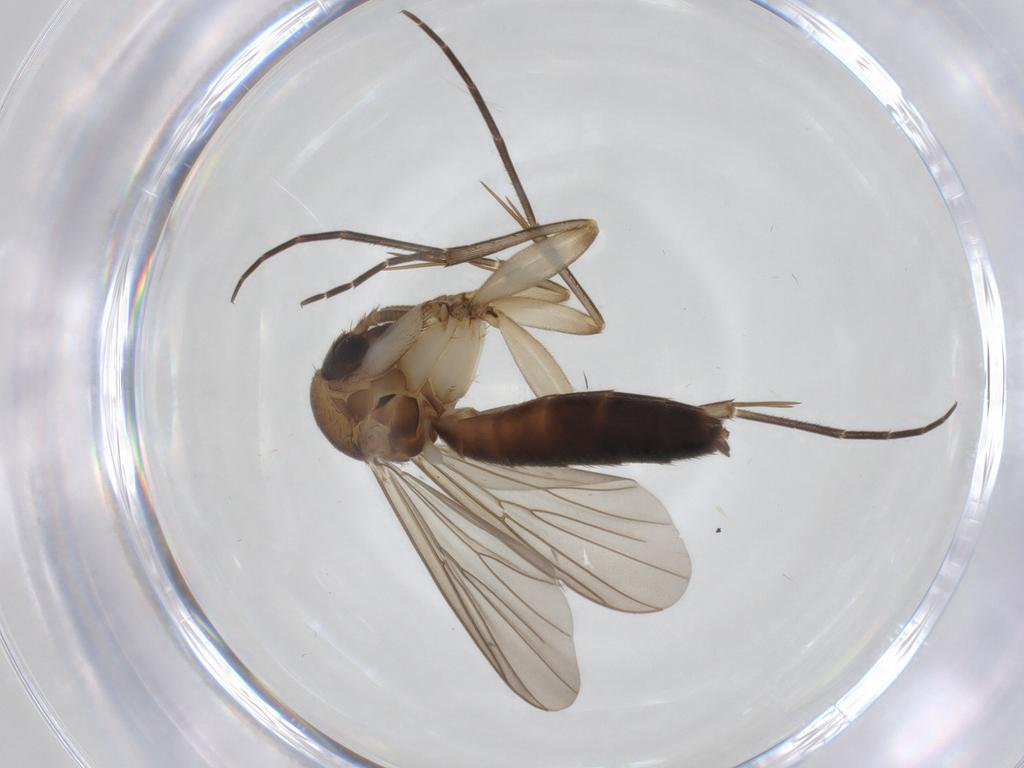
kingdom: Animalia
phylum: Arthropoda
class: Insecta
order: Diptera
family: Mycetophilidae
